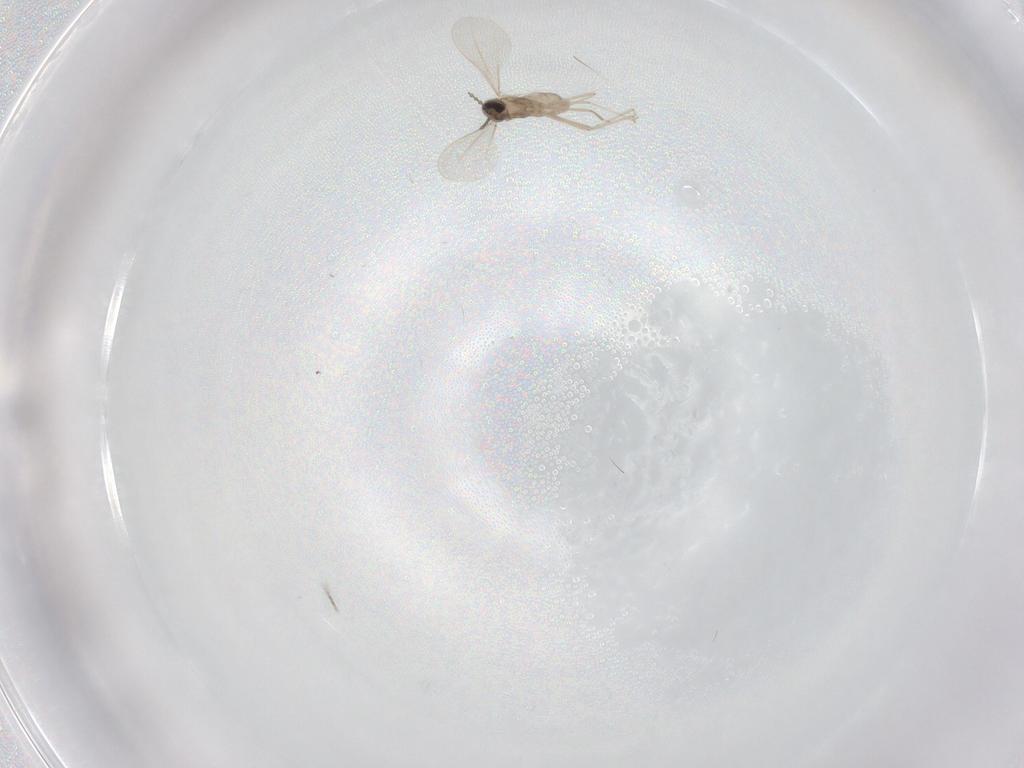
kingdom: Animalia
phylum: Arthropoda
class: Insecta
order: Diptera
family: Cecidomyiidae
